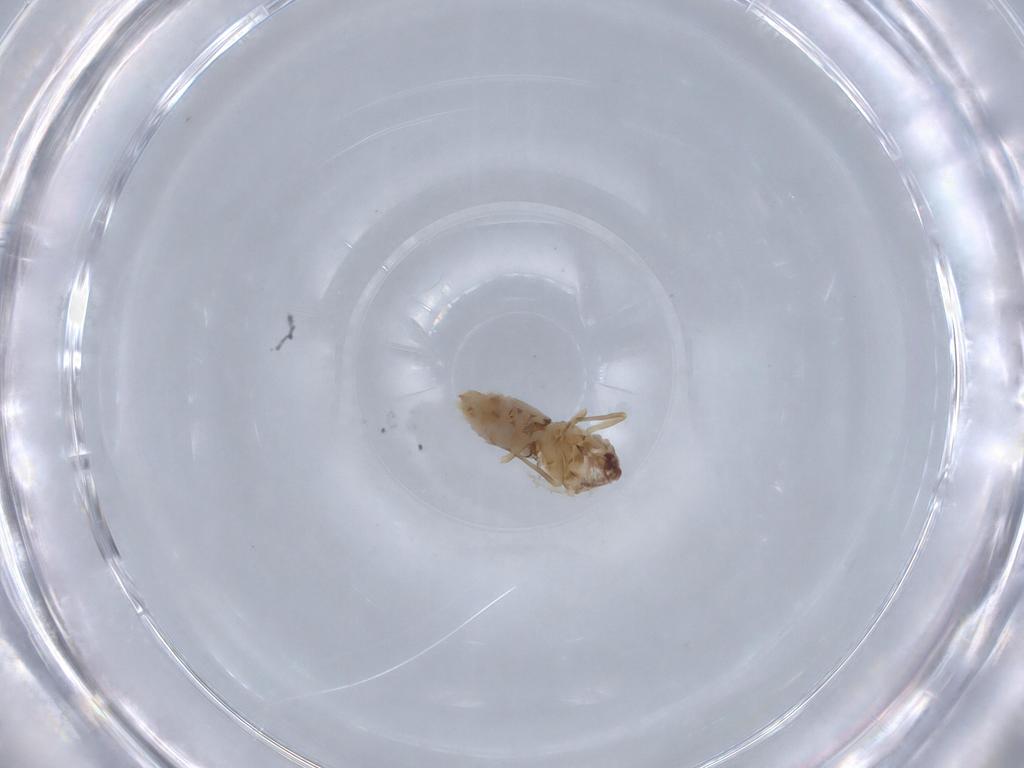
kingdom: Animalia
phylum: Arthropoda
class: Insecta
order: Hemiptera
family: Aleyrodidae
